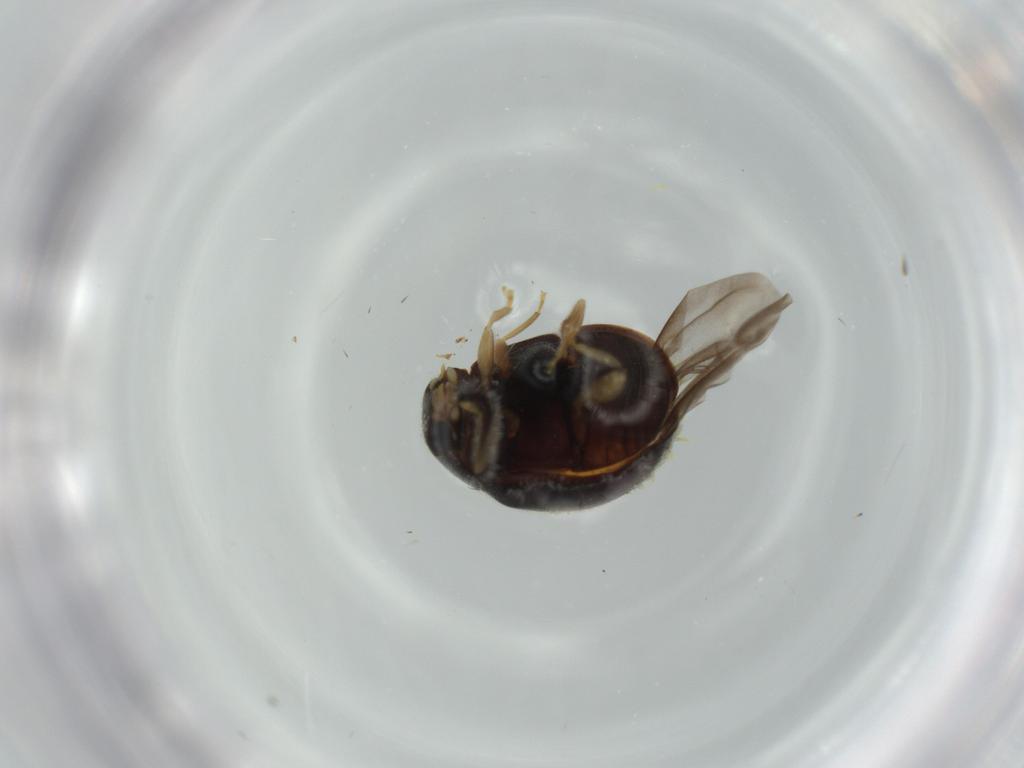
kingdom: Animalia
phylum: Arthropoda
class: Insecta
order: Coleoptera
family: Coccinellidae
